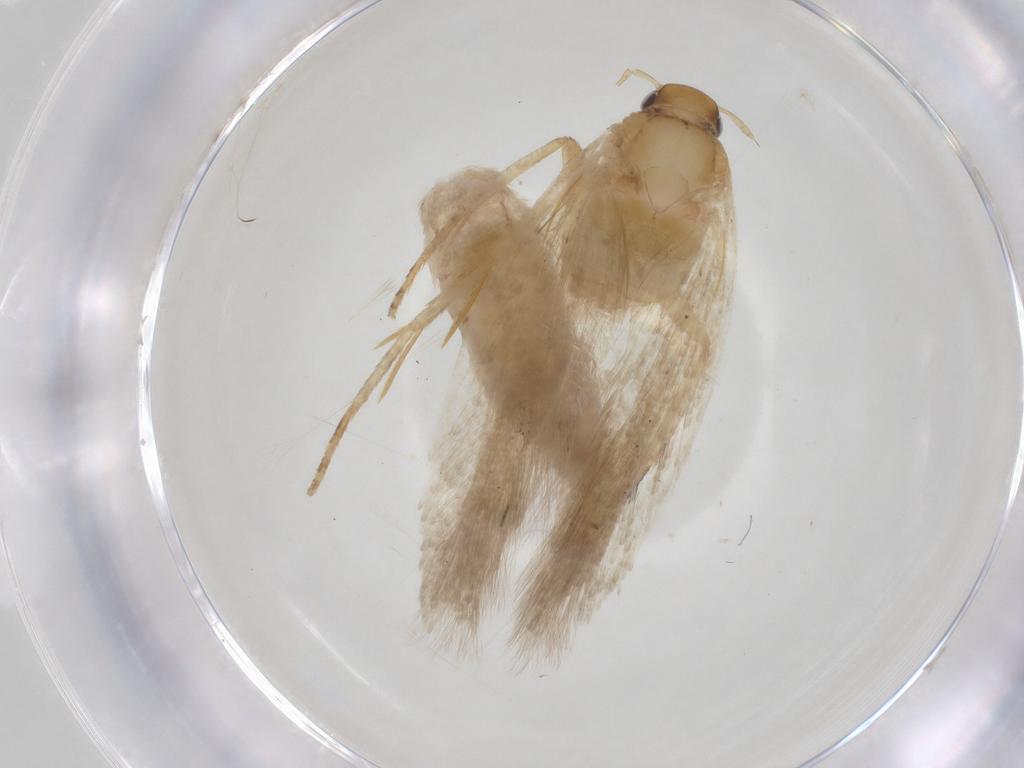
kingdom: Animalia
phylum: Arthropoda
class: Insecta
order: Lepidoptera
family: Gelechiidae
